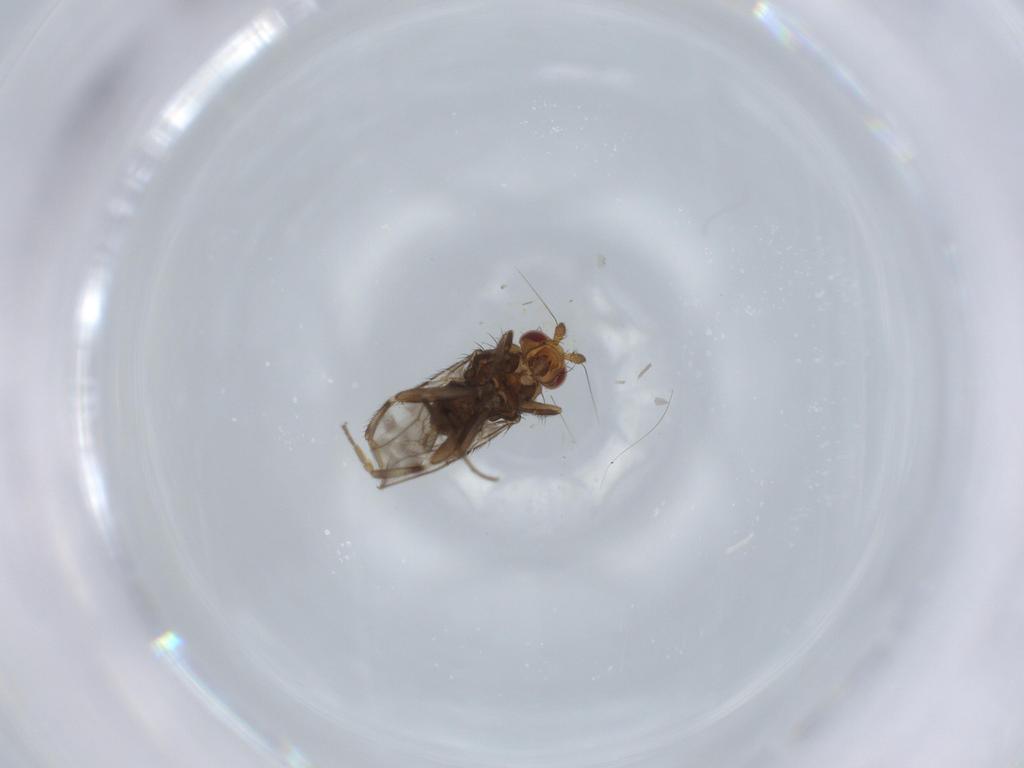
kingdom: Animalia
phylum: Arthropoda
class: Insecta
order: Diptera
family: Sphaeroceridae
